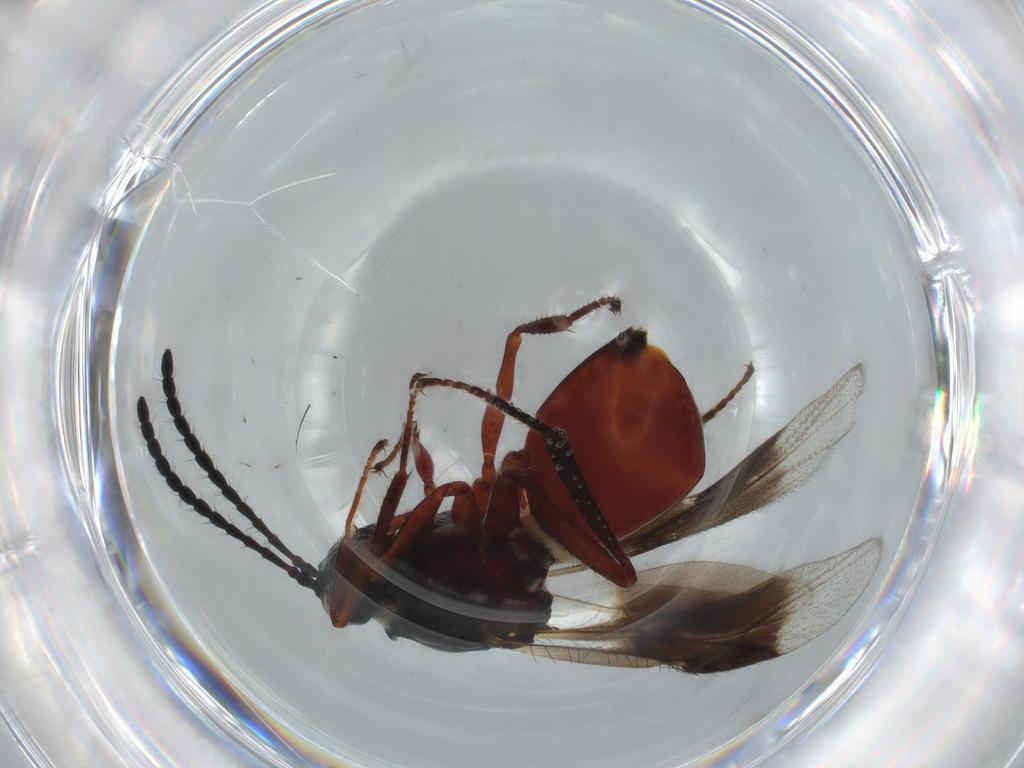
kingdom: Animalia
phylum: Arthropoda
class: Insecta
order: Hymenoptera
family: Figitidae
